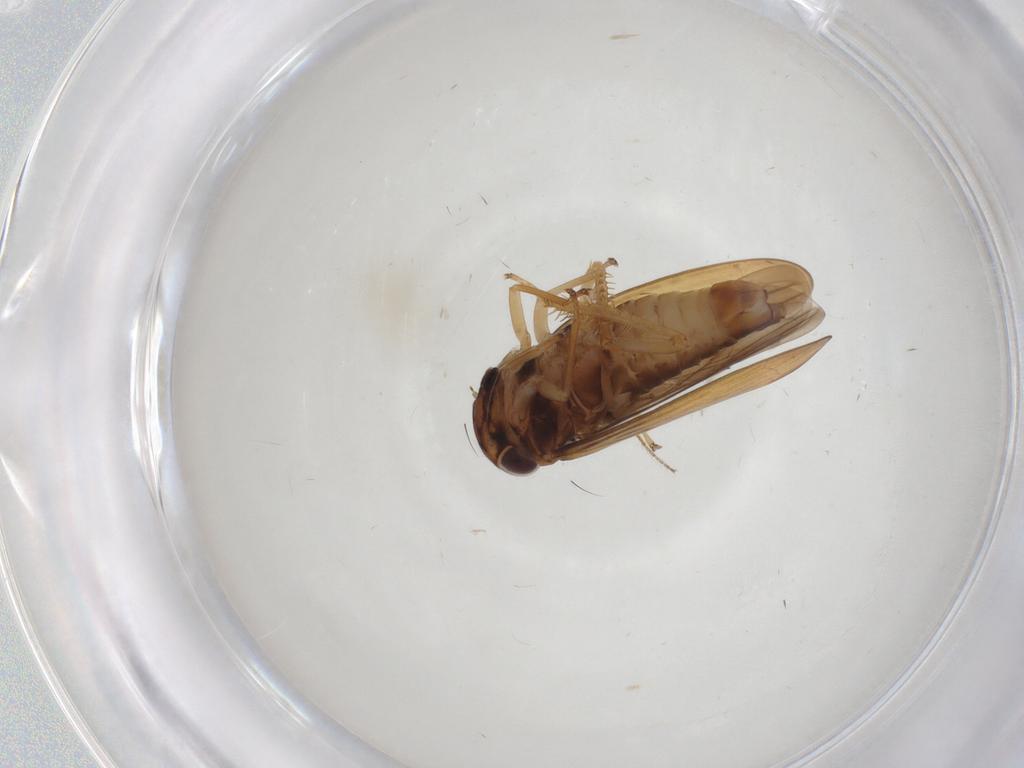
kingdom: Animalia
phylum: Arthropoda
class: Insecta
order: Hemiptera
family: Cicadellidae
